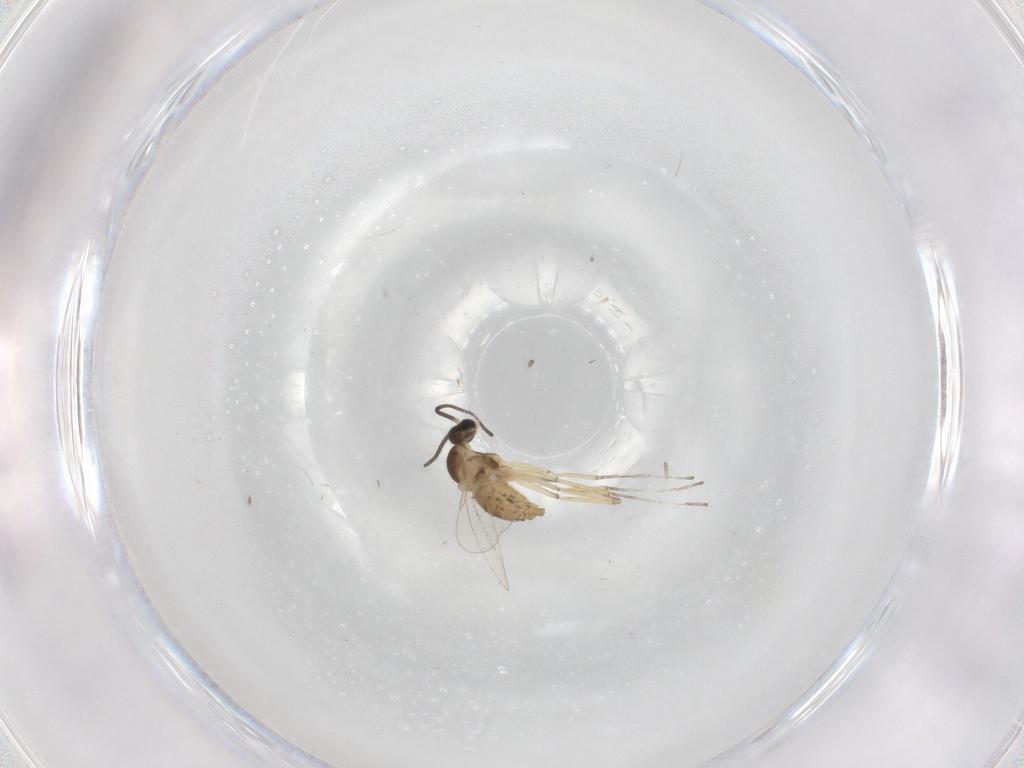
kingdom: Animalia
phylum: Arthropoda
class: Insecta
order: Diptera
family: Cecidomyiidae
